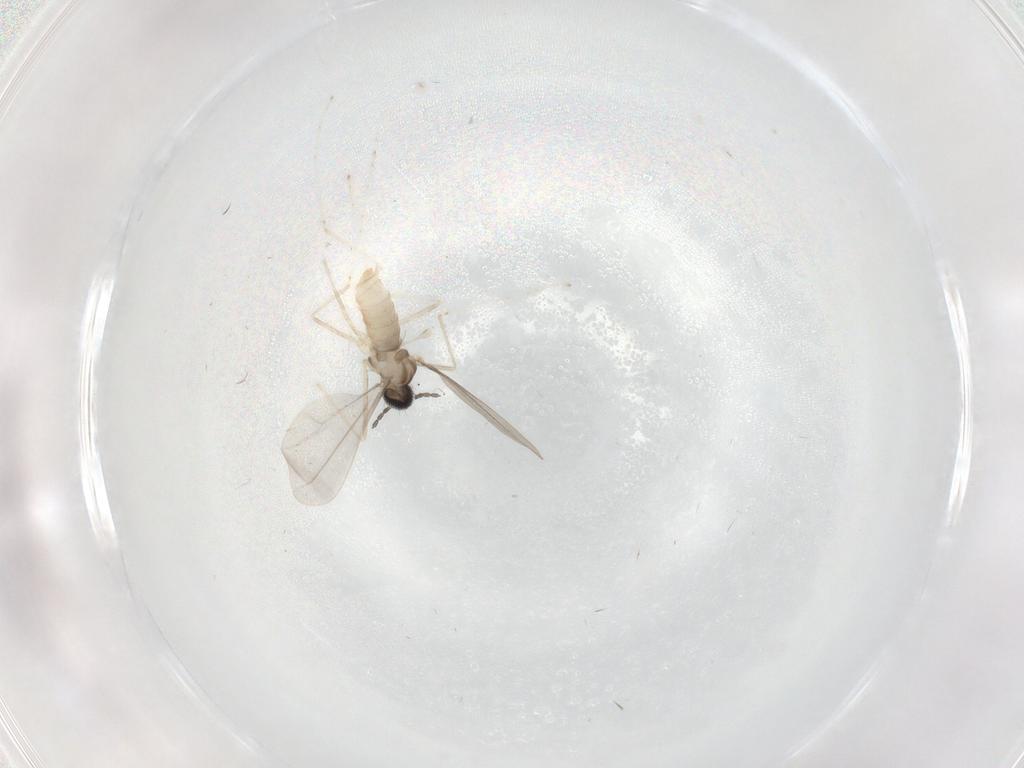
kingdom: Animalia
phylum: Arthropoda
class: Insecta
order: Diptera
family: Cecidomyiidae
